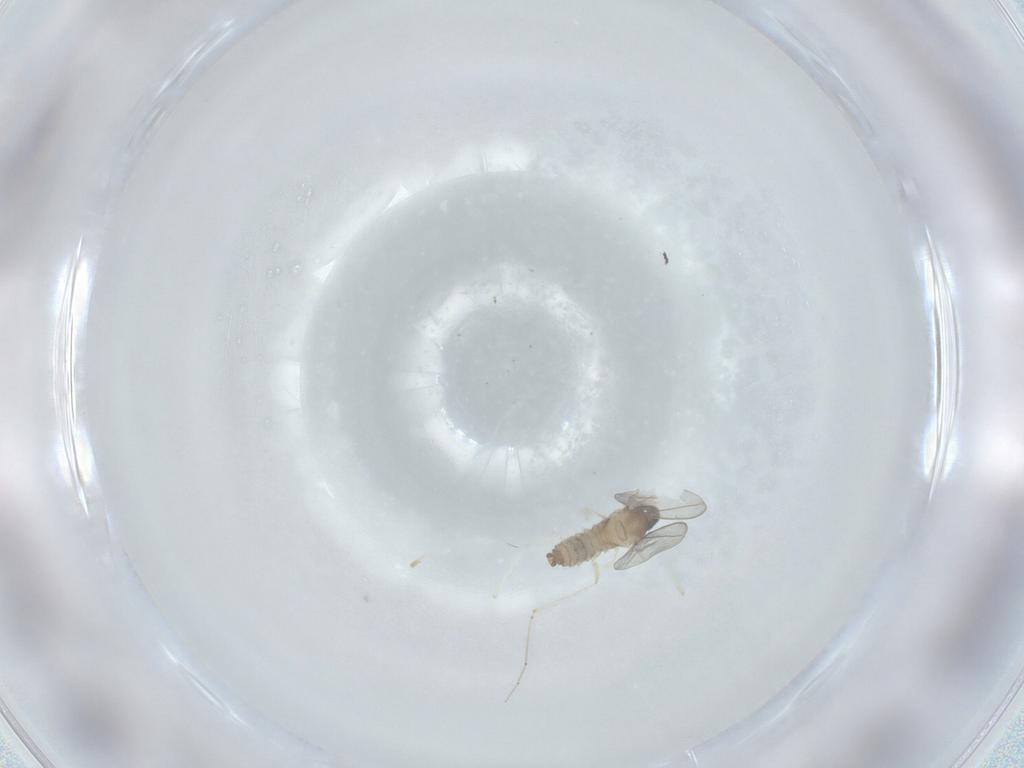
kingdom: Animalia
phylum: Arthropoda
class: Insecta
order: Diptera
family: Cecidomyiidae
